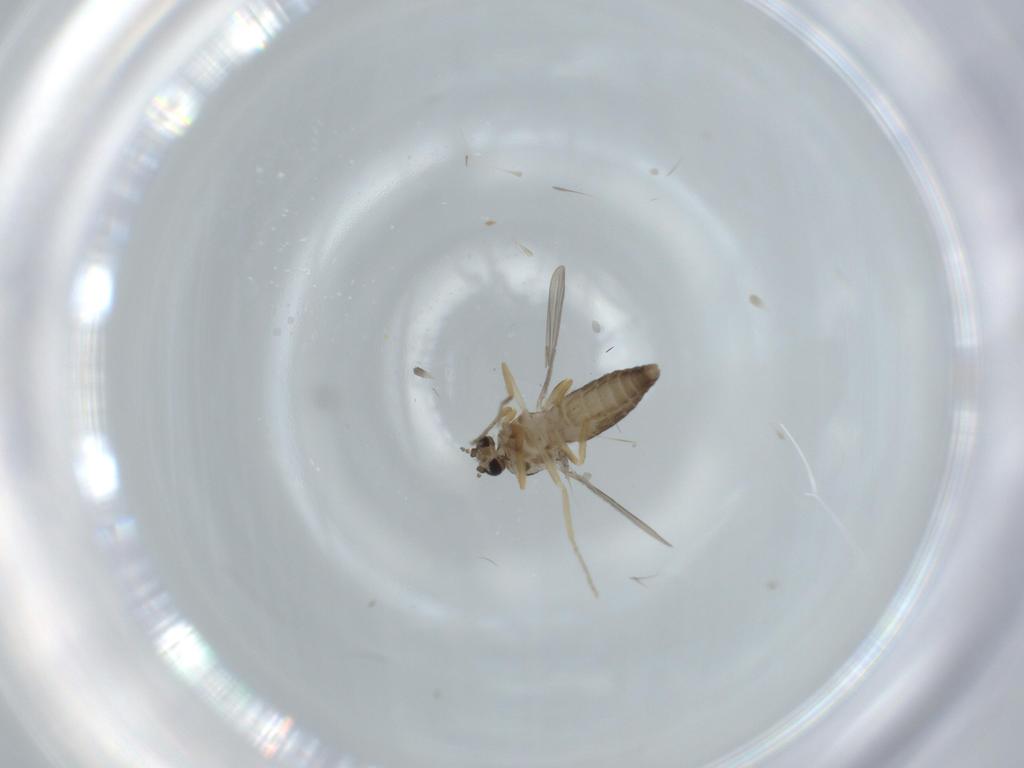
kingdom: Animalia
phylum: Arthropoda
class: Insecta
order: Diptera
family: Ceratopogonidae
